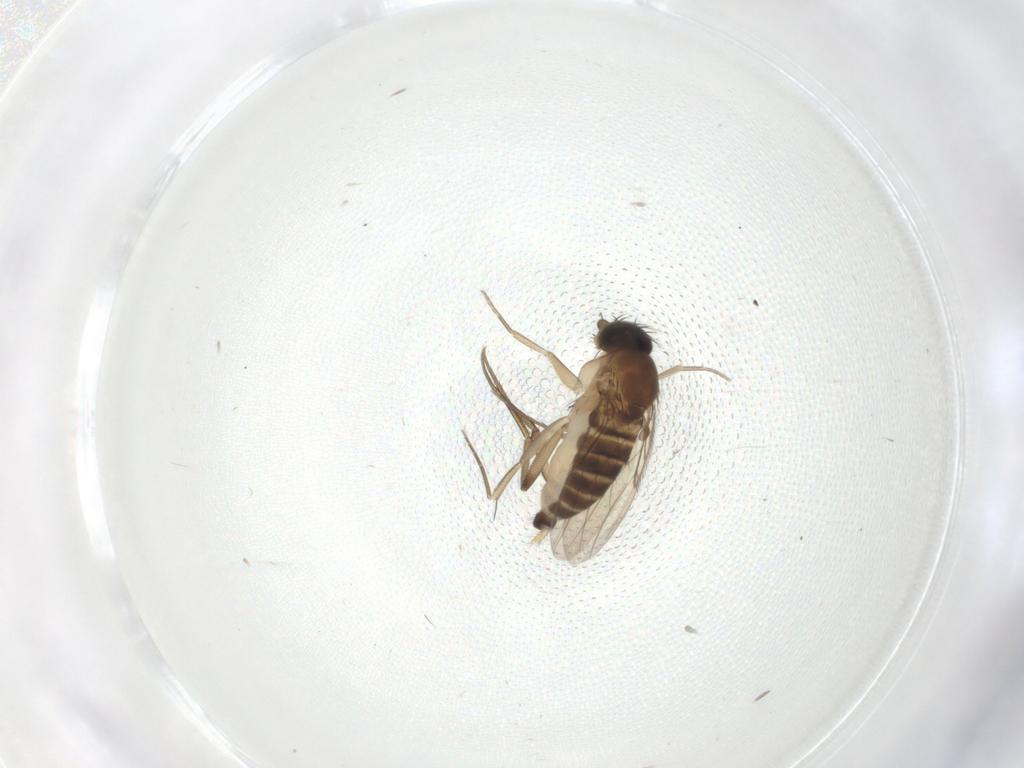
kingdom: Animalia
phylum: Arthropoda
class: Insecta
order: Diptera
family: Phoridae
